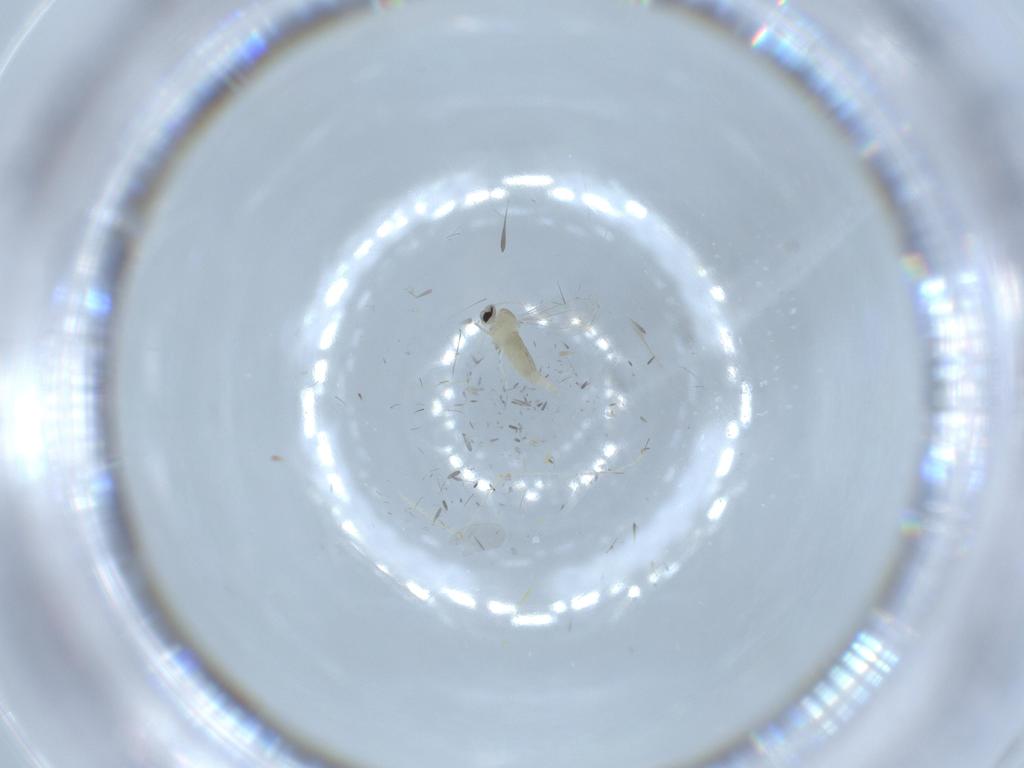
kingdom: Animalia
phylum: Arthropoda
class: Insecta
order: Diptera
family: Cecidomyiidae
